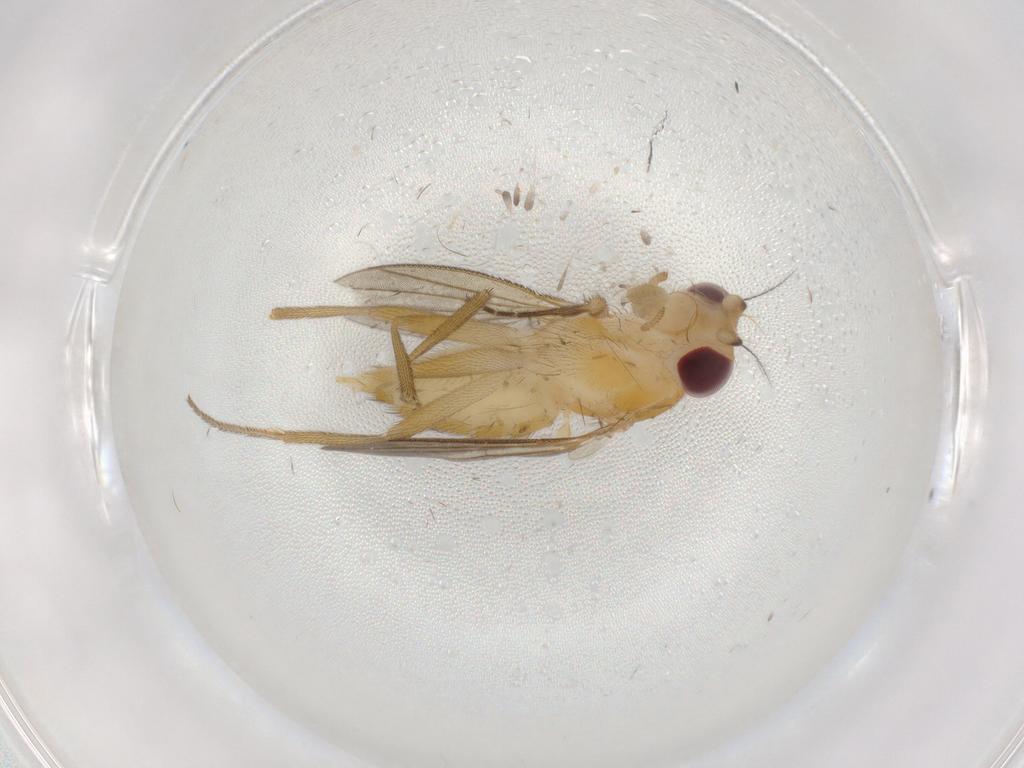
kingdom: Animalia
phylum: Arthropoda
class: Insecta
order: Diptera
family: Clusiidae
